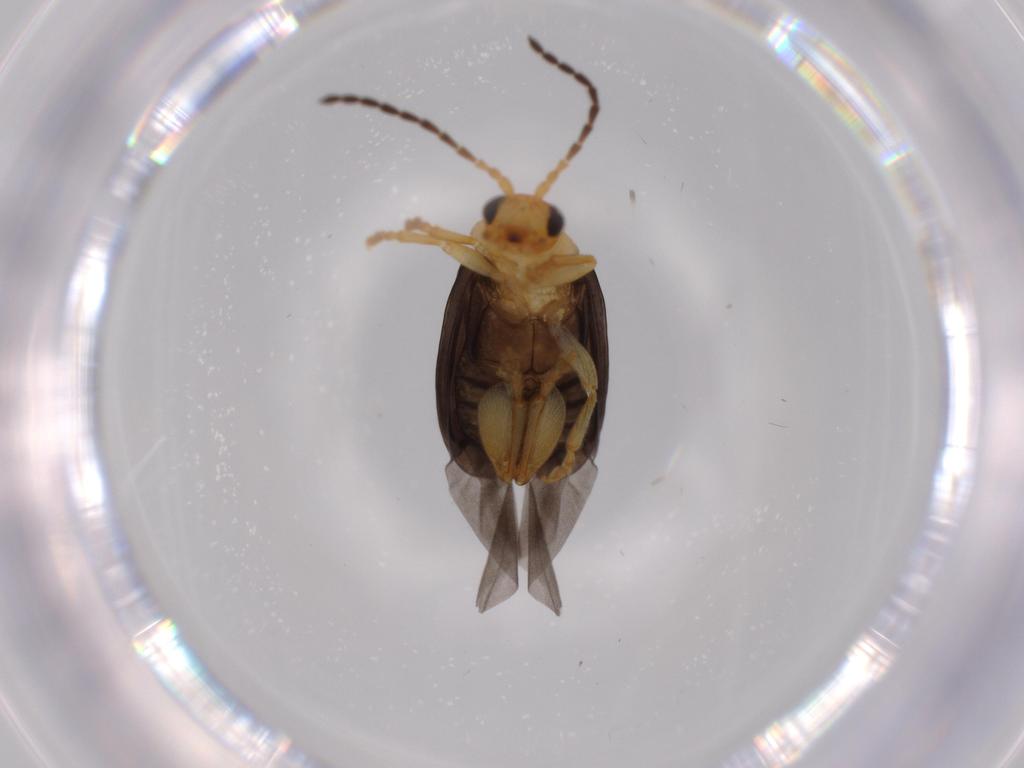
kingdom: Animalia
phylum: Arthropoda
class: Insecta
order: Coleoptera
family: Chrysomelidae
